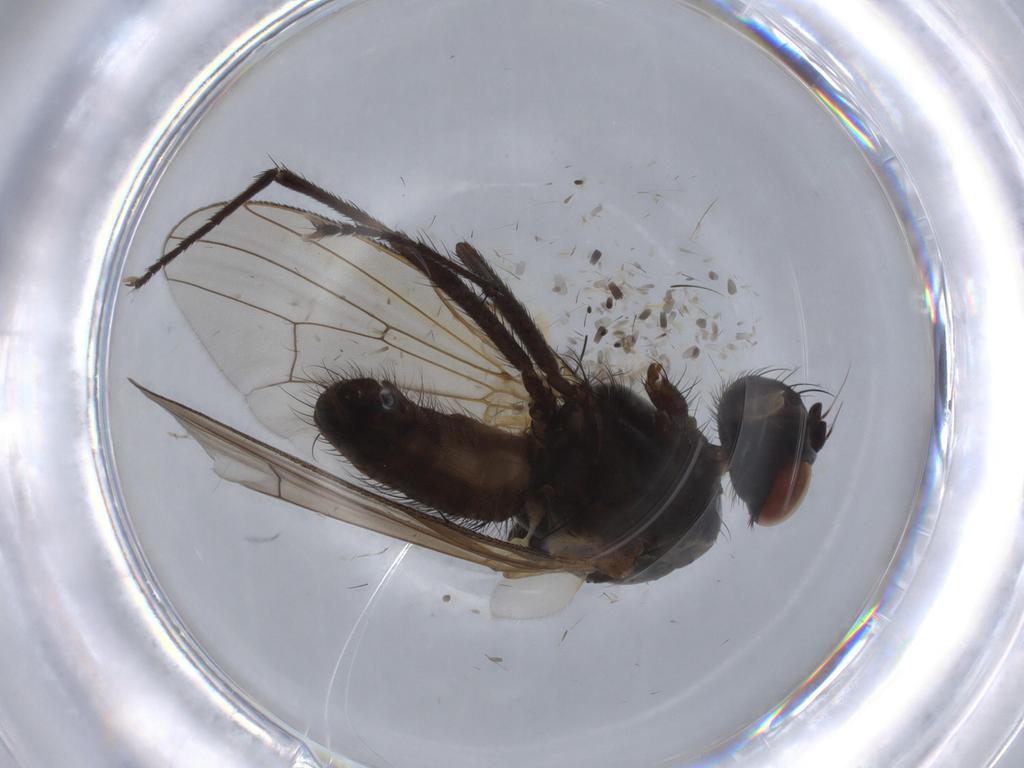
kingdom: Animalia
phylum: Arthropoda
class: Insecta
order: Diptera
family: Anthomyiidae
